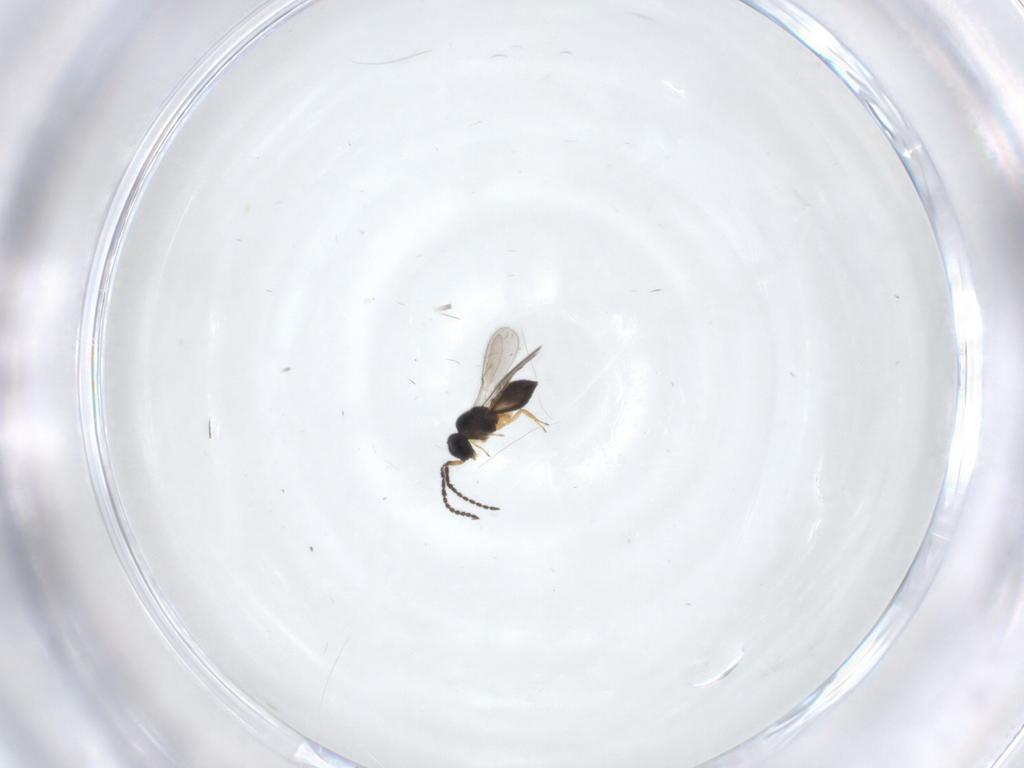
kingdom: Animalia
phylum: Arthropoda
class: Insecta
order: Hymenoptera
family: Scelionidae
